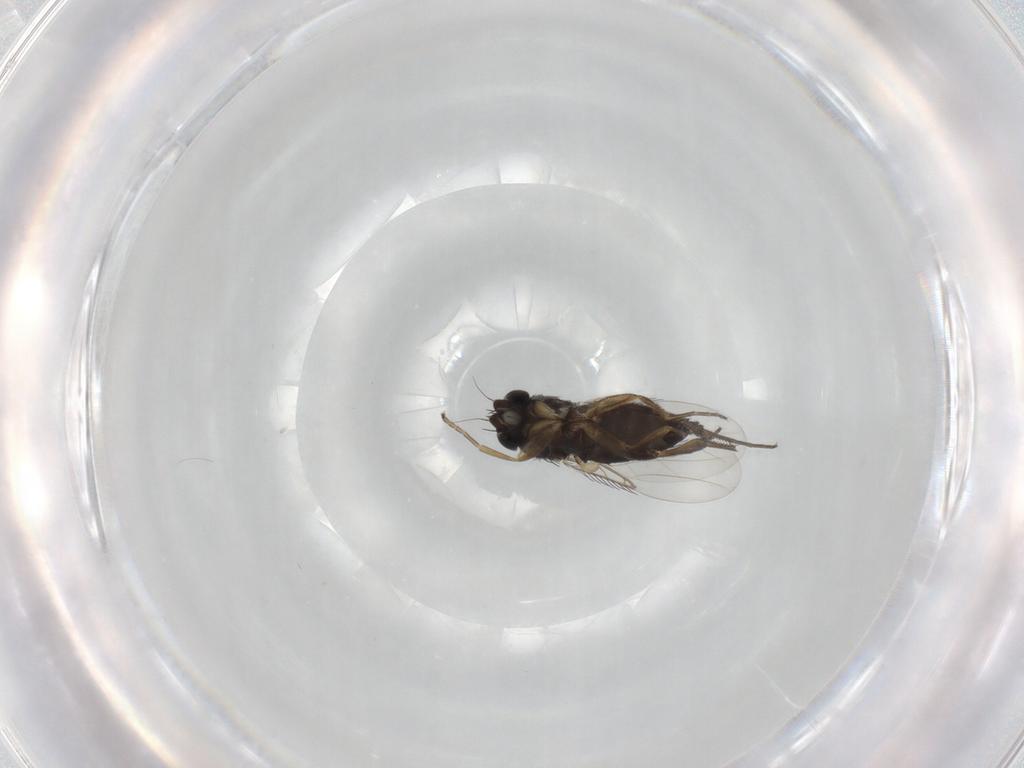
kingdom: Animalia
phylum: Arthropoda
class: Insecta
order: Diptera
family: Phoridae
